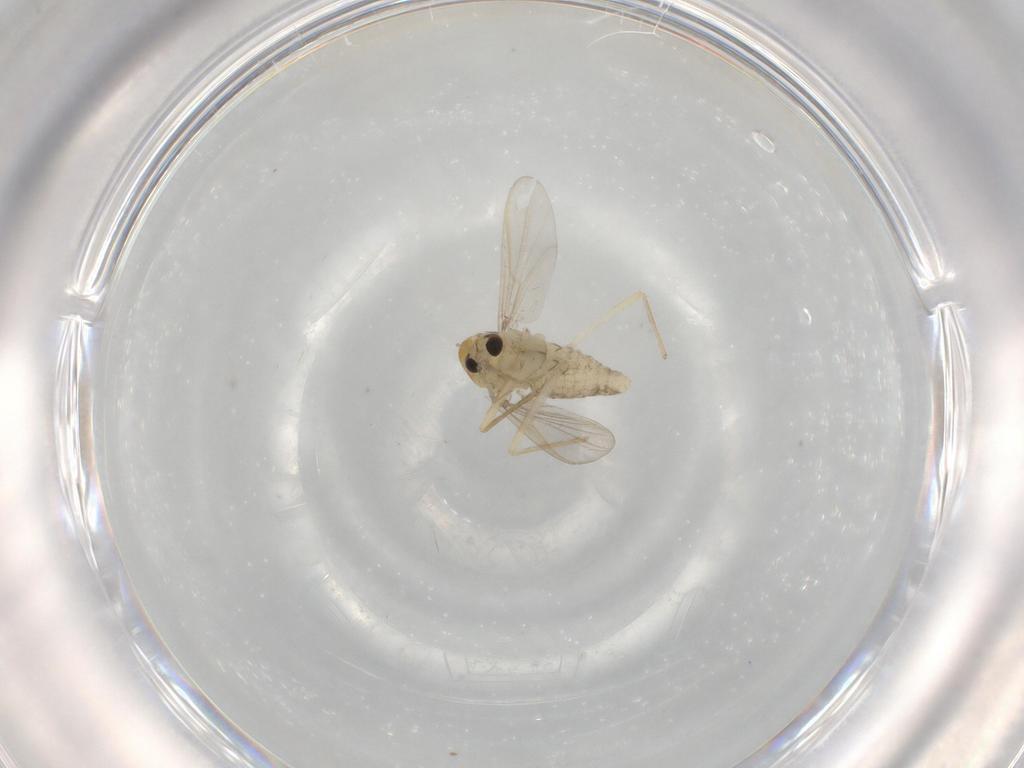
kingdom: Animalia
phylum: Arthropoda
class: Insecta
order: Diptera
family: Chironomidae
